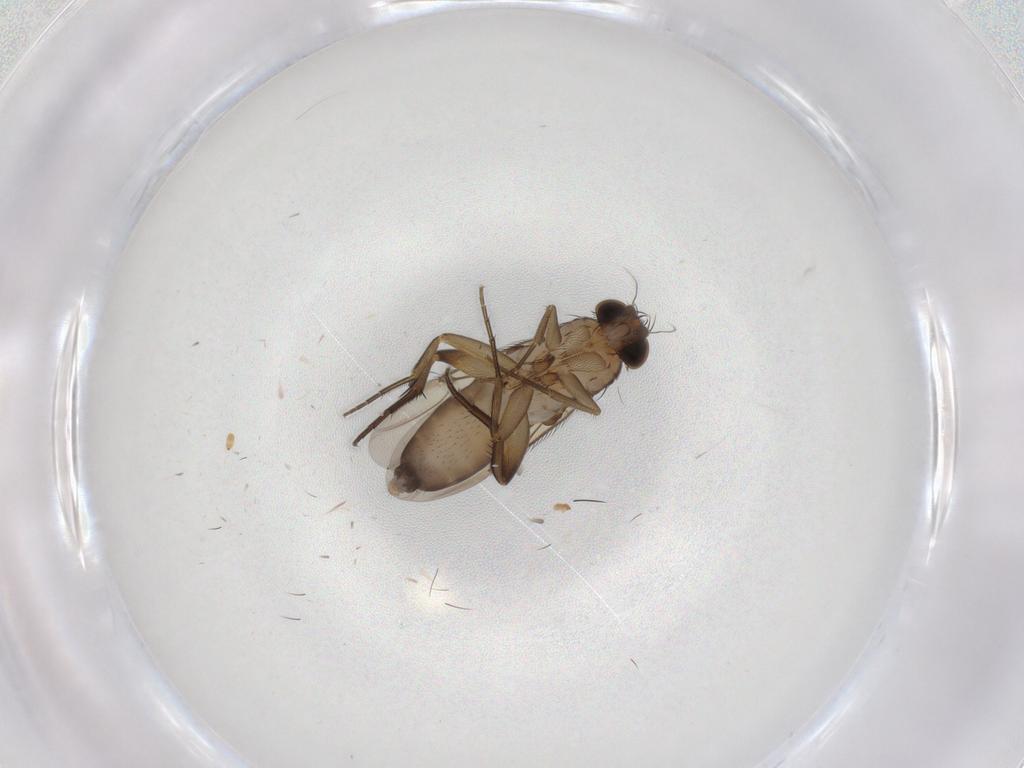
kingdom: Animalia
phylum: Arthropoda
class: Insecta
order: Diptera
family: Phoridae
